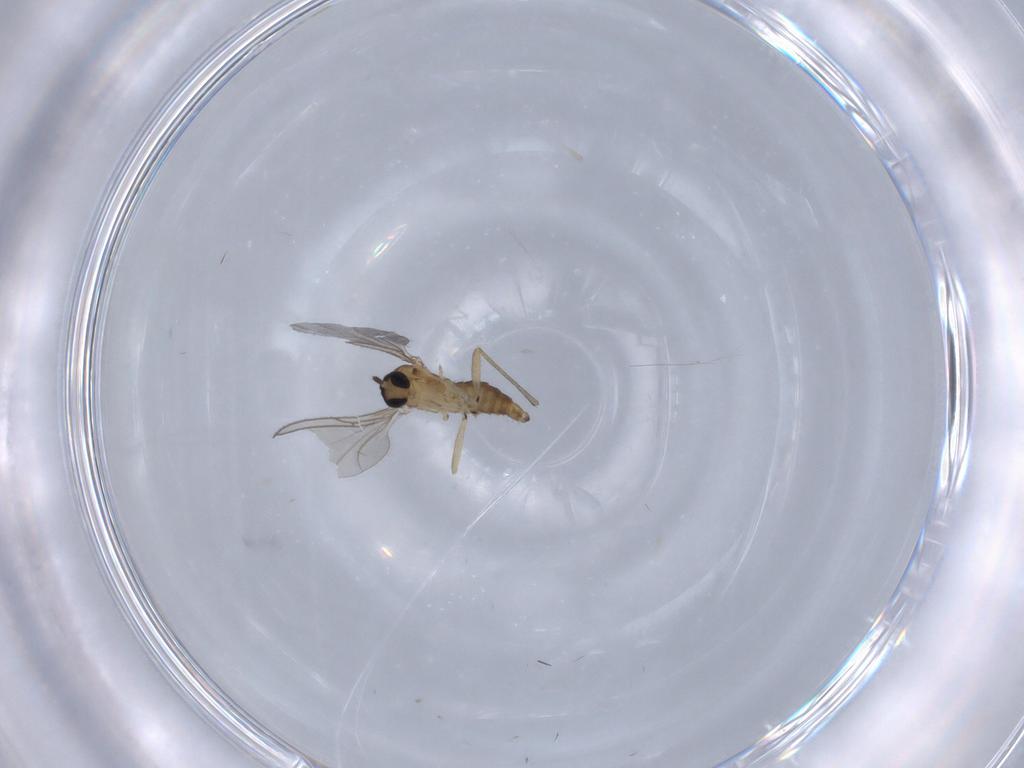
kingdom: Animalia
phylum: Arthropoda
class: Insecta
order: Diptera
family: Sciaridae
